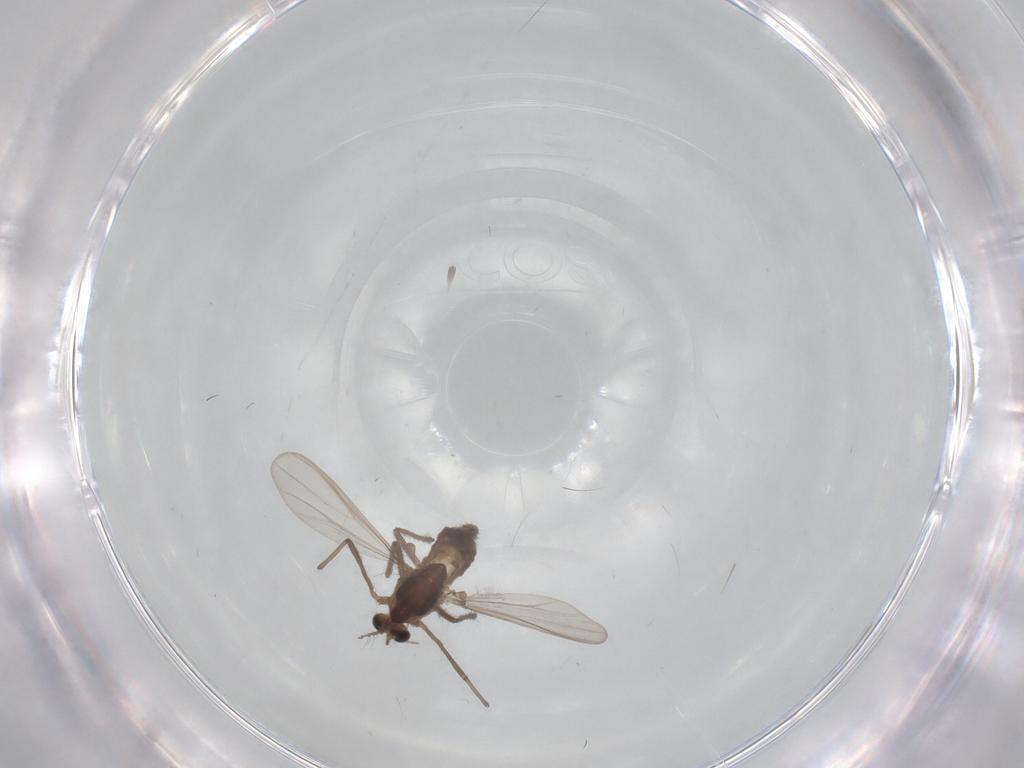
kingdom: Animalia
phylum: Arthropoda
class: Insecta
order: Diptera
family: Chironomidae
